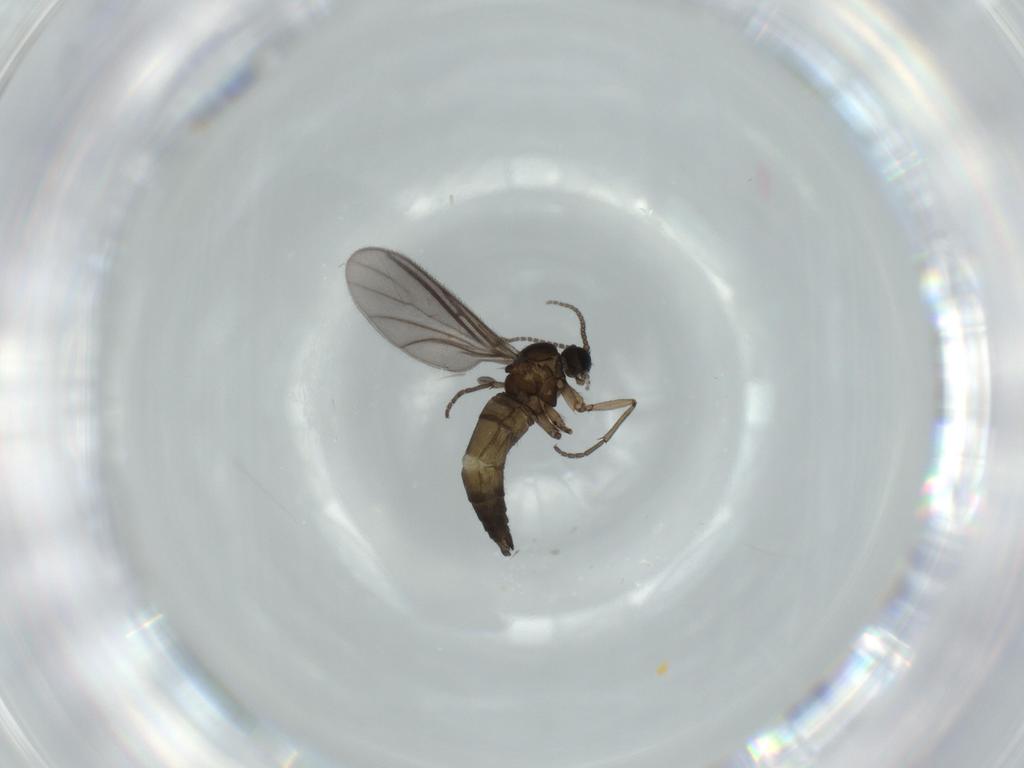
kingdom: Animalia
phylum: Arthropoda
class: Insecta
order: Diptera
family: Sciaridae
